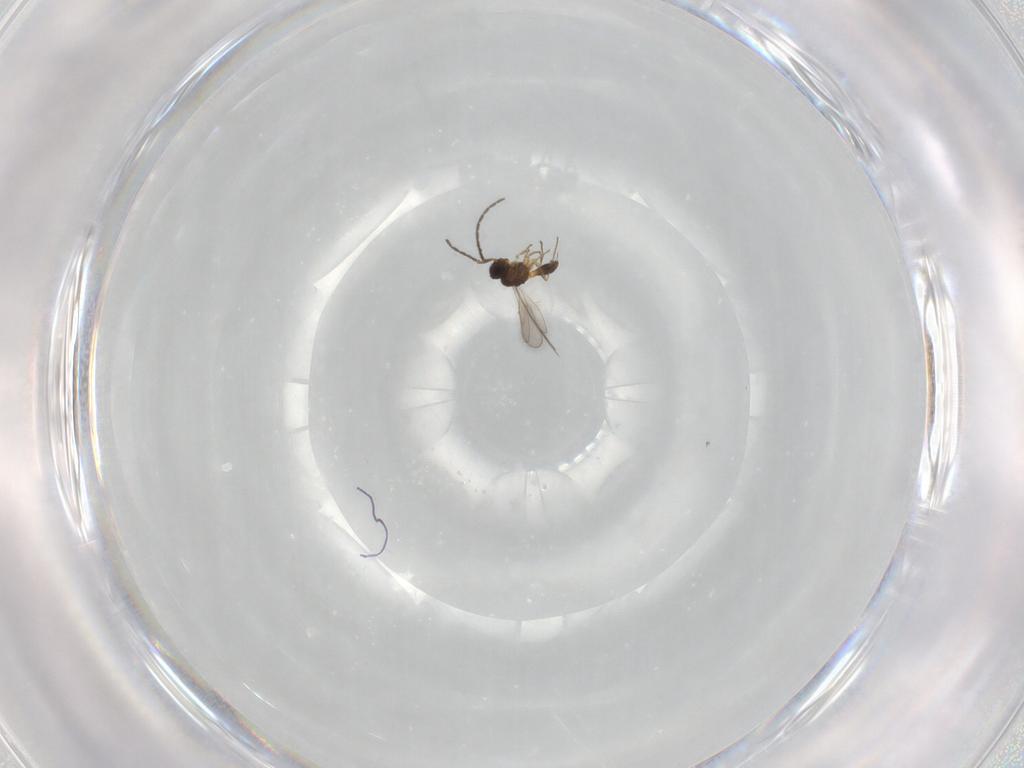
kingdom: Animalia
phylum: Arthropoda
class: Insecta
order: Hymenoptera
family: Scelionidae
